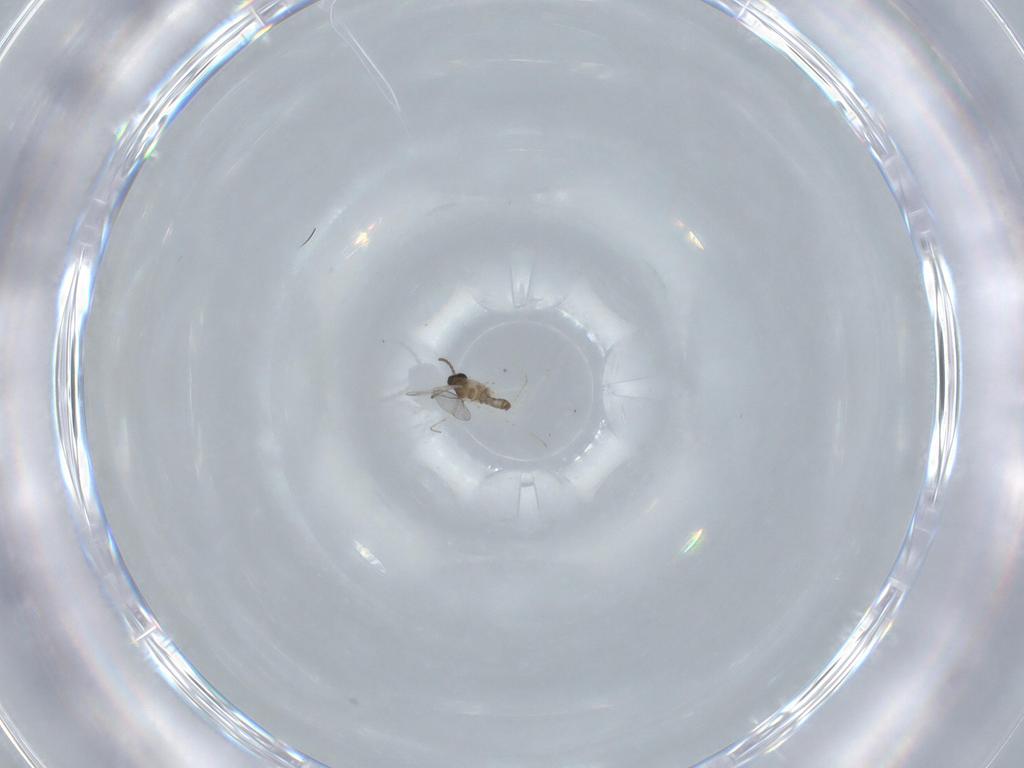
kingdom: Animalia
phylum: Arthropoda
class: Insecta
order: Diptera
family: Cecidomyiidae
